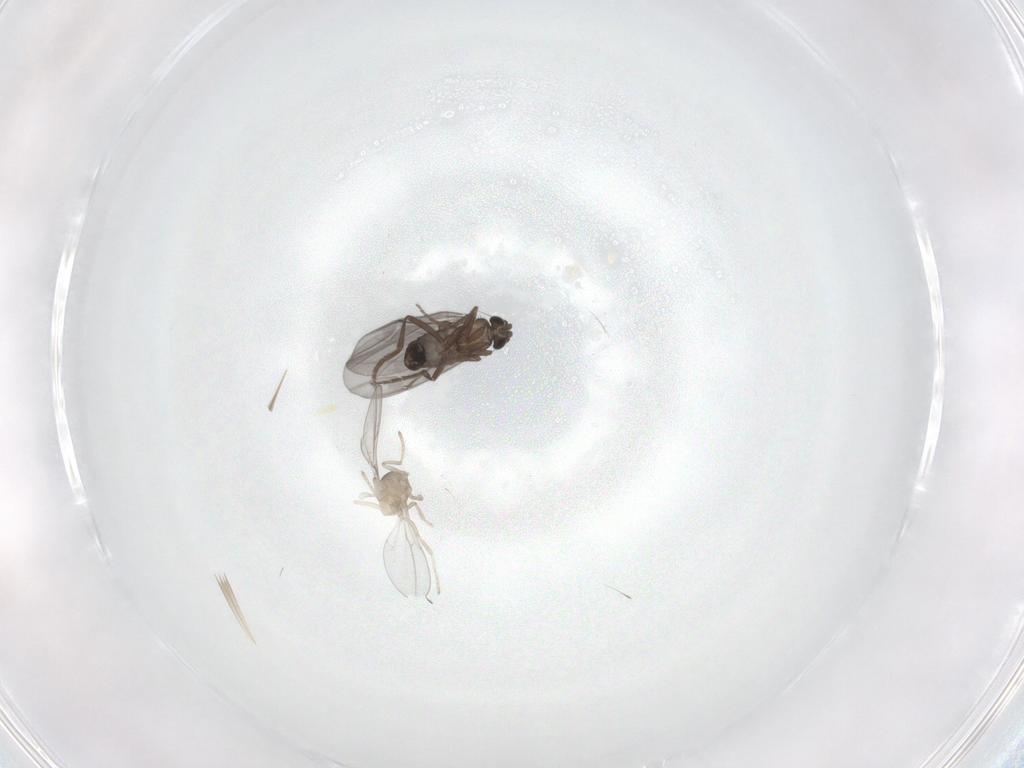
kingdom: Animalia
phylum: Arthropoda
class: Insecta
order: Diptera
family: Cecidomyiidae
